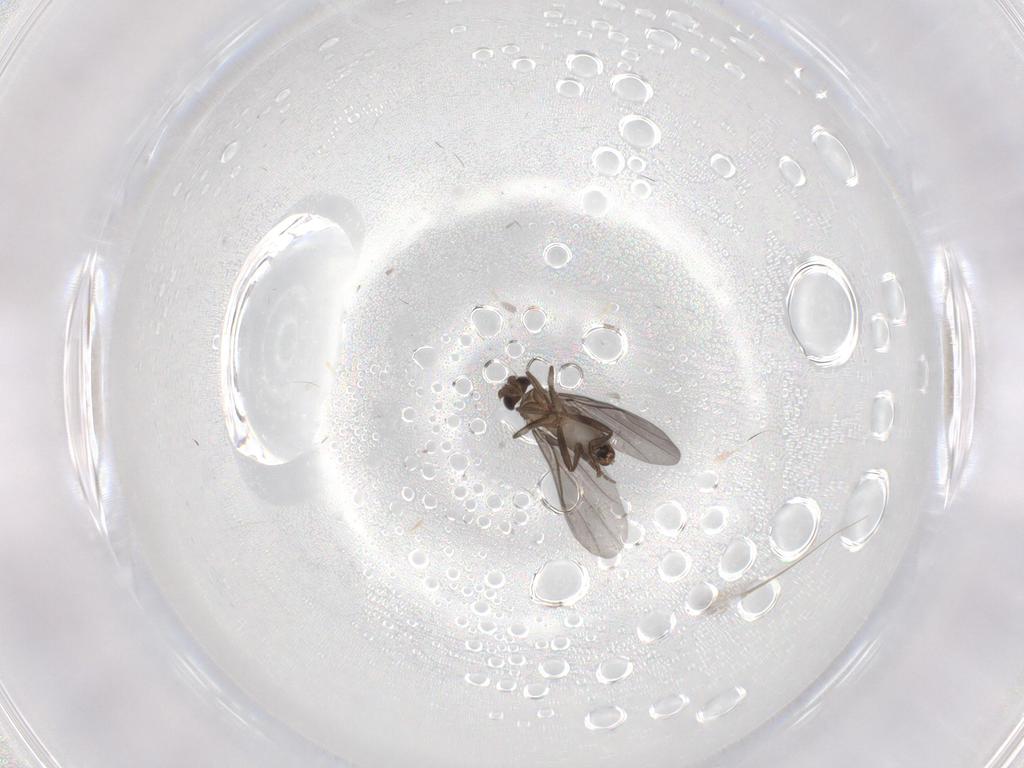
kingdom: Animalia
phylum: Arthropoda
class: Insecta
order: Diptera
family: Phoridae
